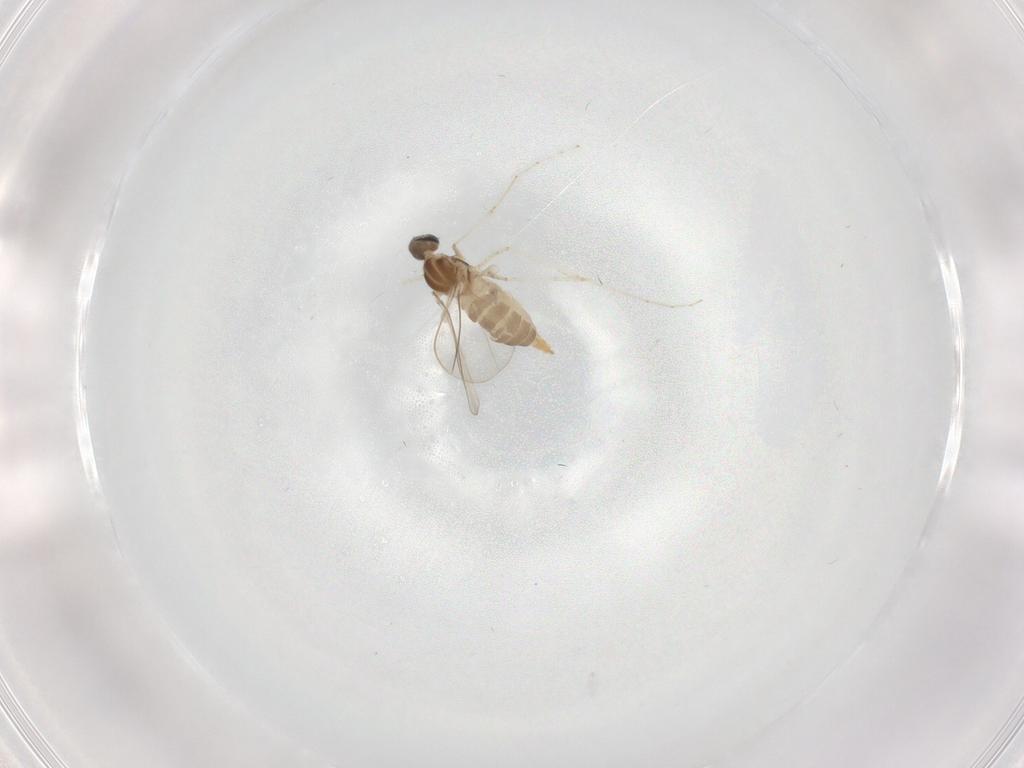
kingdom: Animalia
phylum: Arthropoda
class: Insecta
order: Diptera
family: Cecidomyiidae
